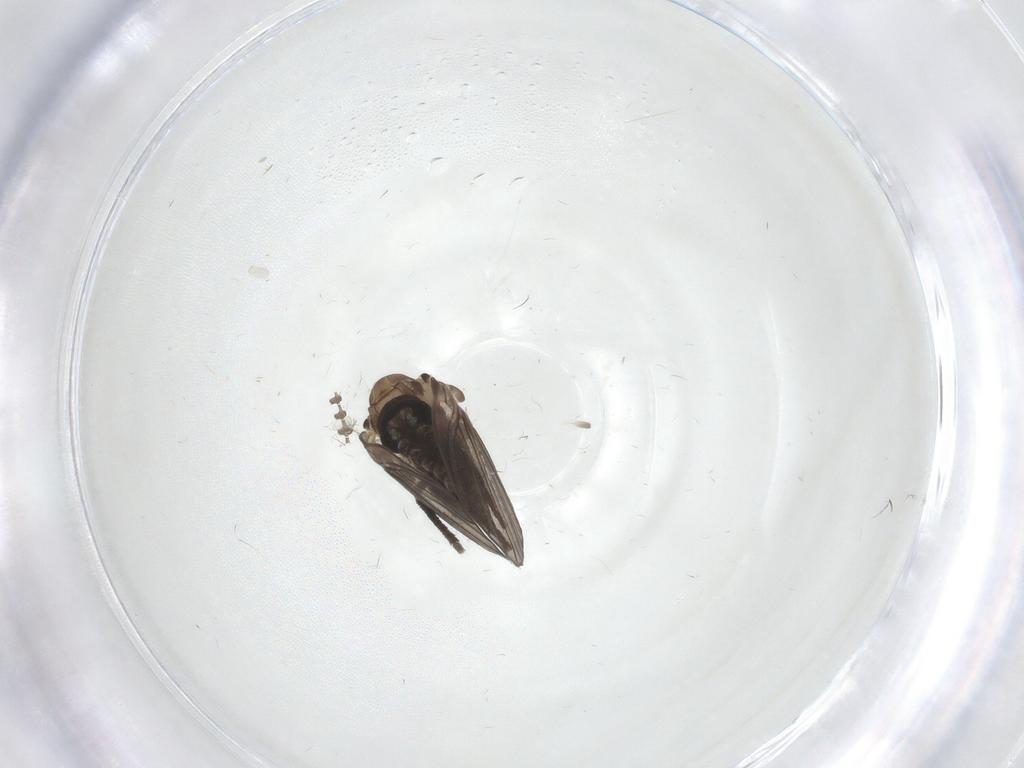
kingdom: Animalia
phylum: Arthropoda
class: Insecta
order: Diptera
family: Psychodidae
